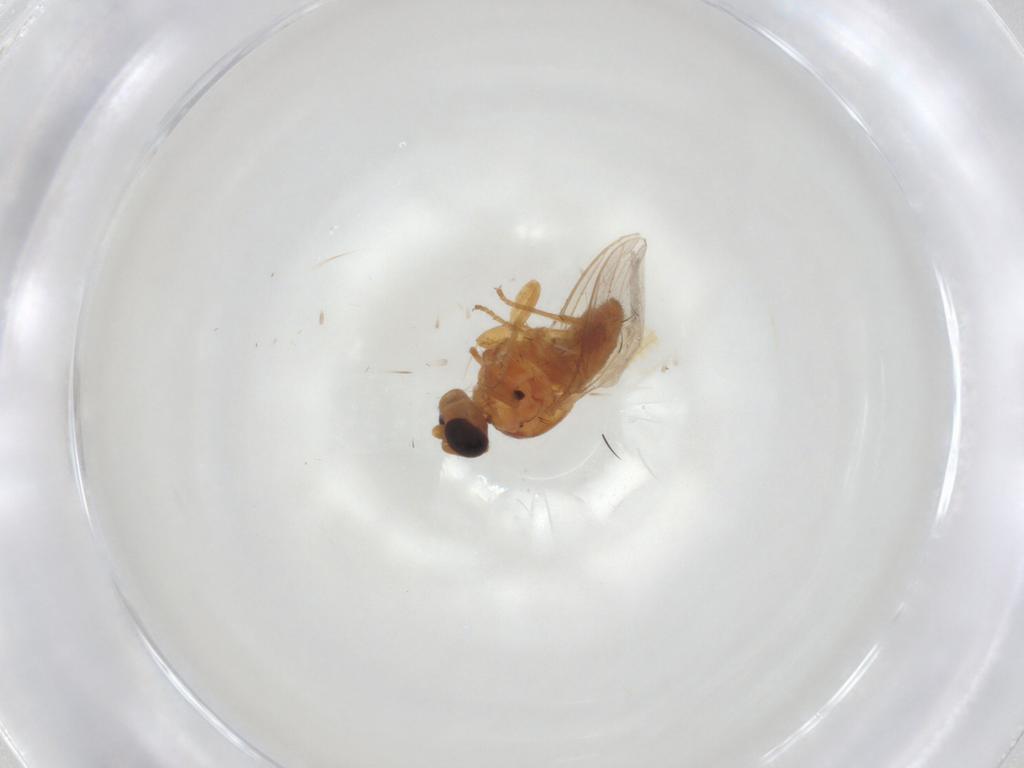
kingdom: Animalia
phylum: Arthropoda
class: Insecta
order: Diptera
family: Chloropidae
